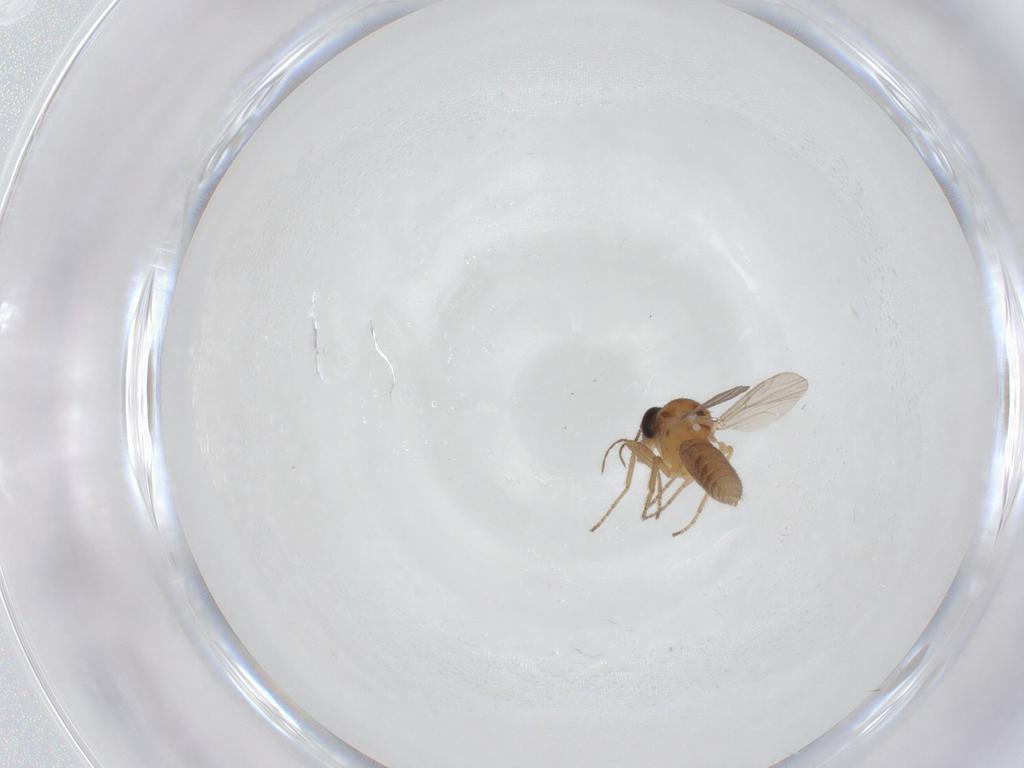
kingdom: Animalia
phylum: Arthropoda
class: Insecta
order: Diptera
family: Ceratopogonidae
